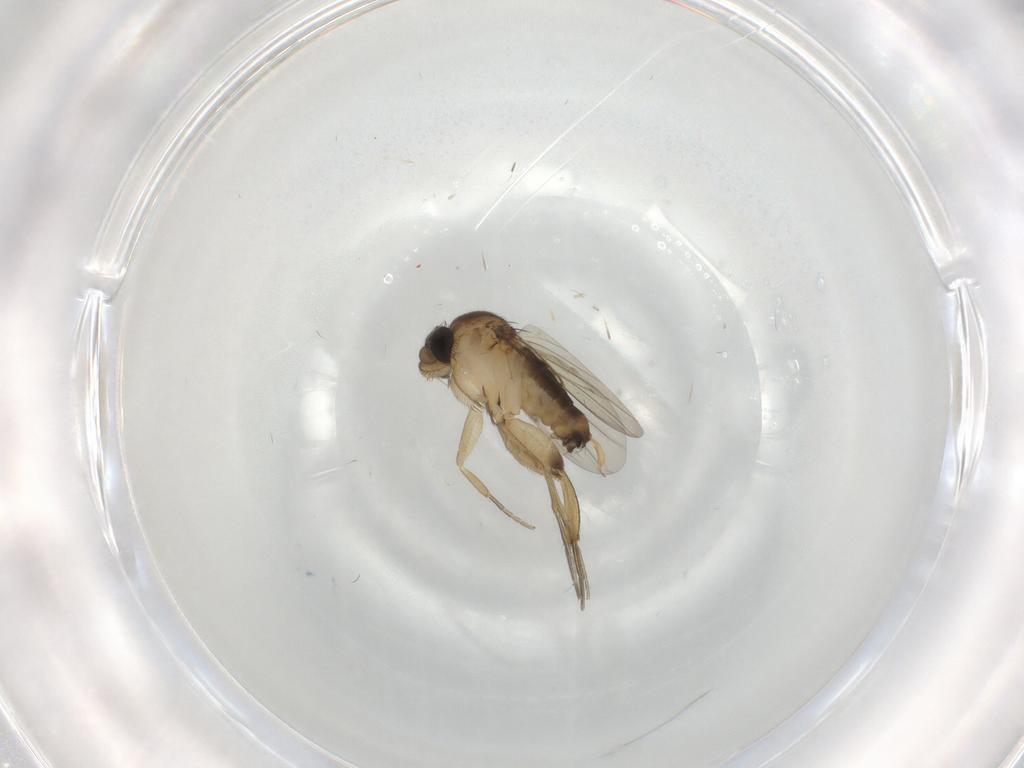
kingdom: Animalia
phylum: Arthropoda
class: Insecta
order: Diptera
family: Phoridae
